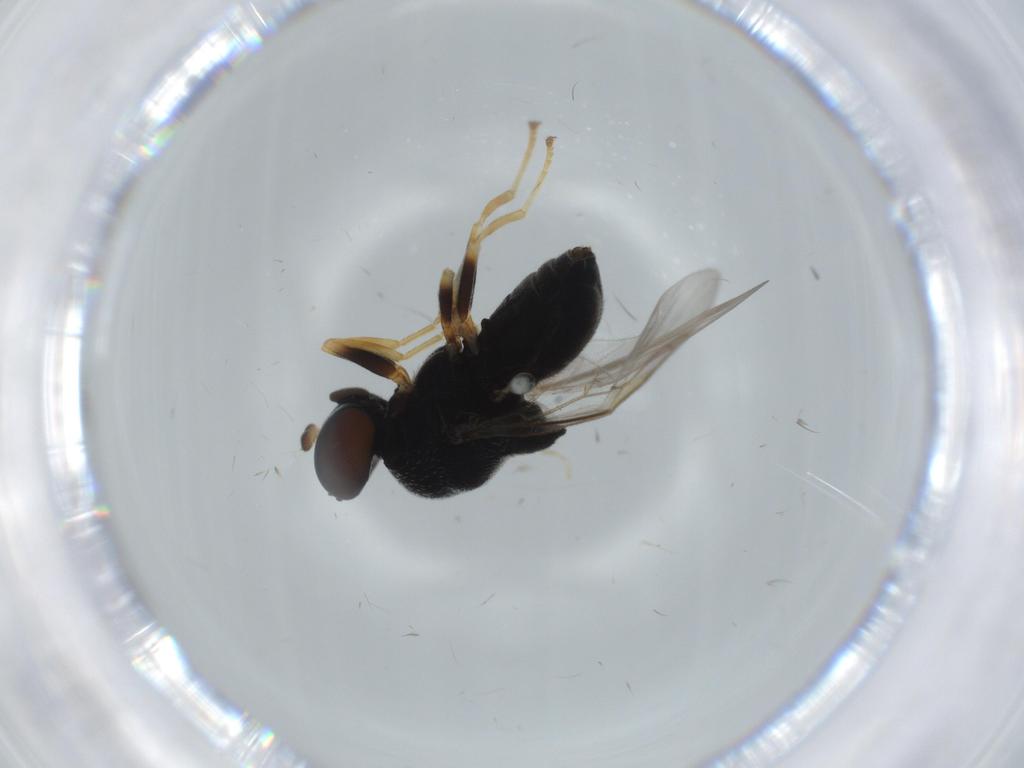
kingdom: Animalia
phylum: Arthropoda
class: Insecta
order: Diptera
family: Stratiomyidae
